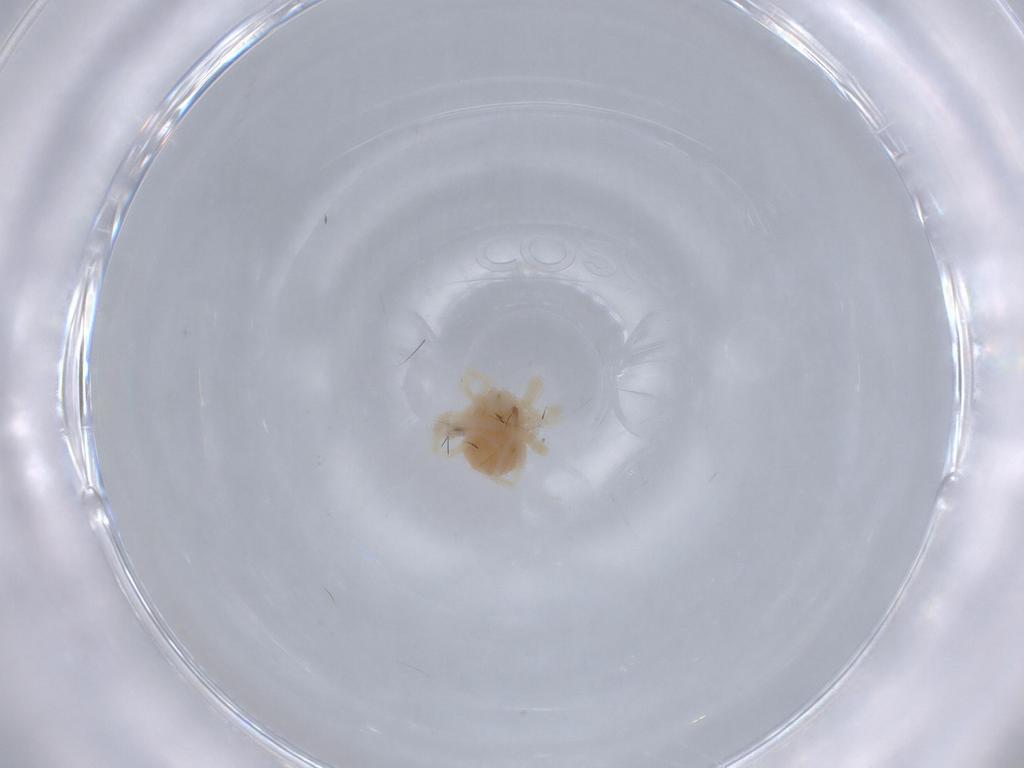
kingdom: Animalia
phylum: Arthropoda
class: Arachnida
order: Trombidiformes
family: Anystidae
